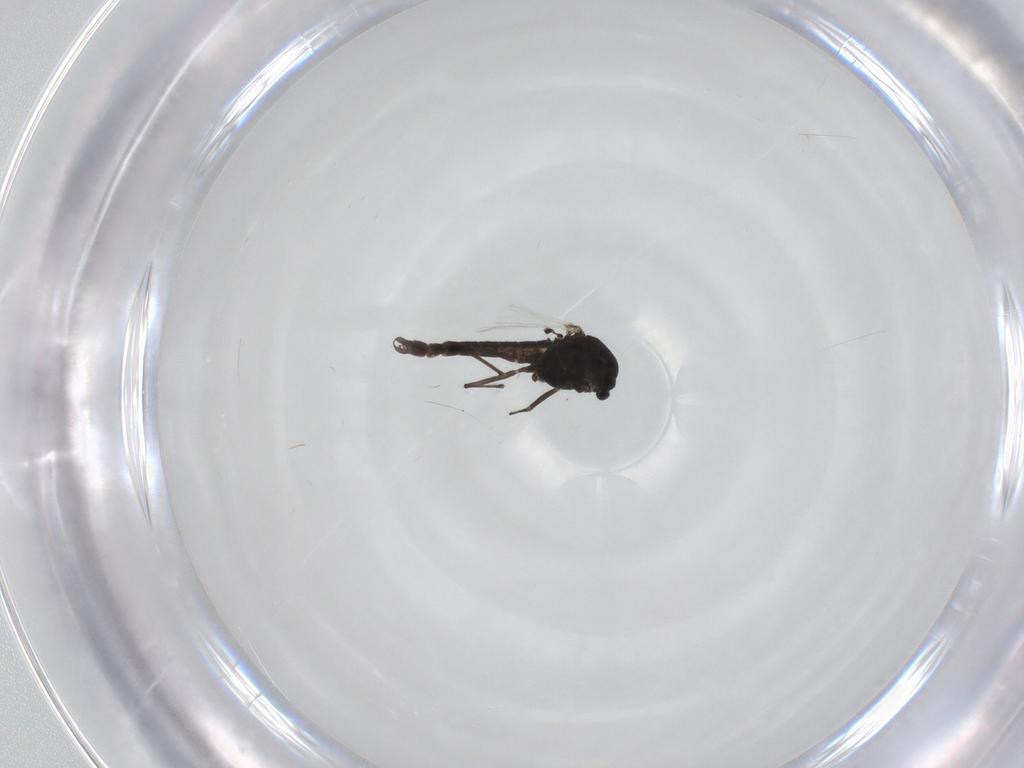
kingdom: Animalia
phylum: Arthropoda
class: Insecta
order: Diptera
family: Chironomidae
